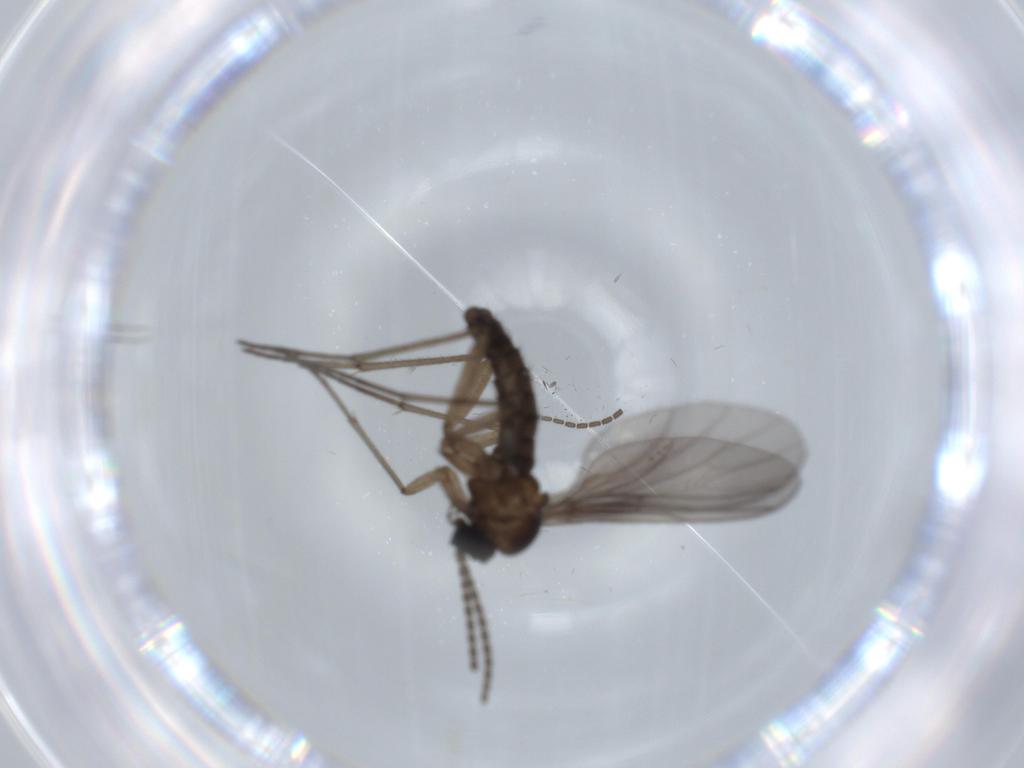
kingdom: Animalia
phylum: Arthropoda
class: Insecta
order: Diptera
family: Sciaridae
